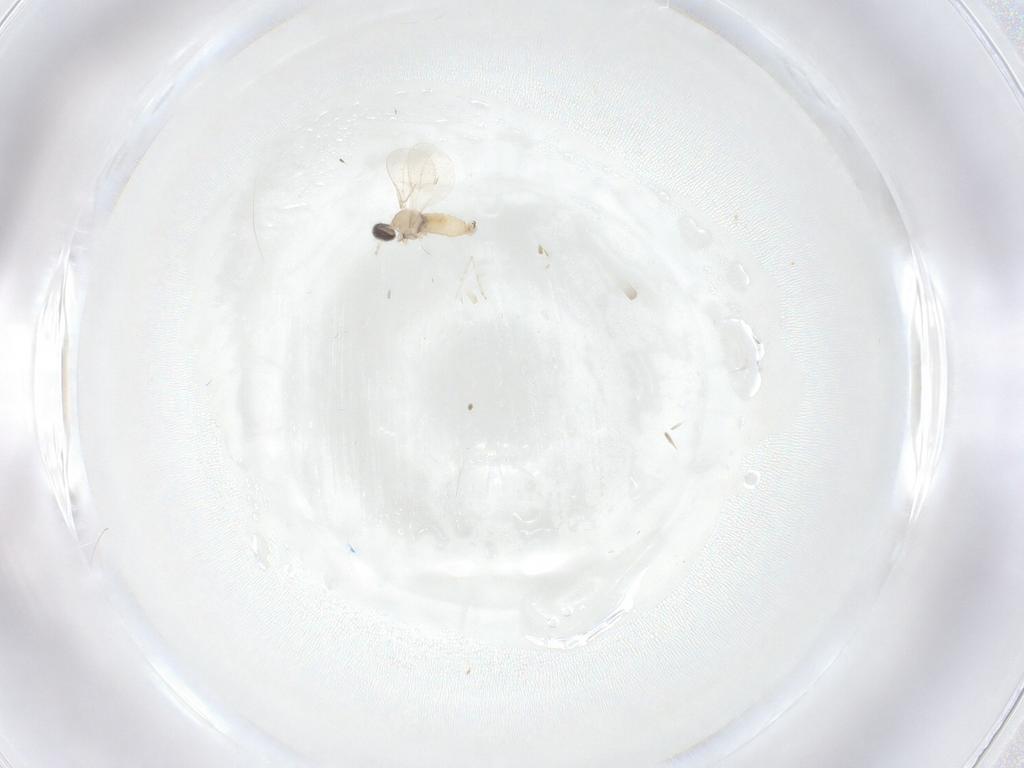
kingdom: Animalia
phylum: Arthropoda
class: Insecta
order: Diptera
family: Cecidomyiidae
